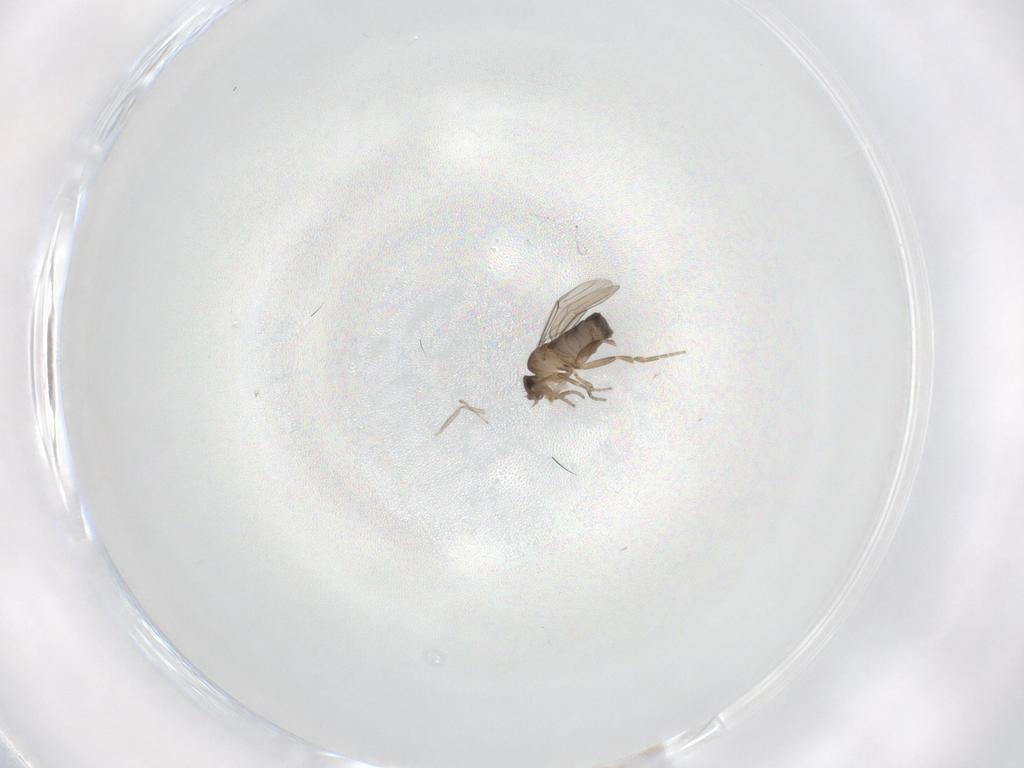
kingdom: Animalia
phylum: Arthropoda
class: Insecta
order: Diptera
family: Phoridae
